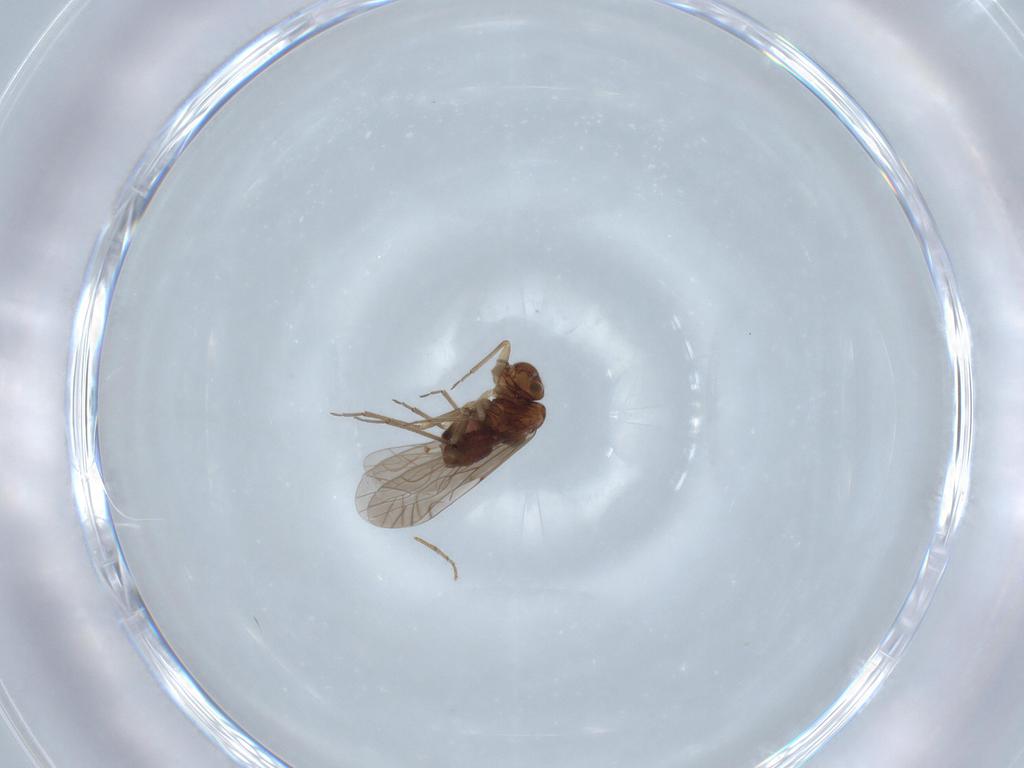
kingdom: Animalia
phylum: Arthropoda
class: Insecta
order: Psocodea
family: Lachesillidae
